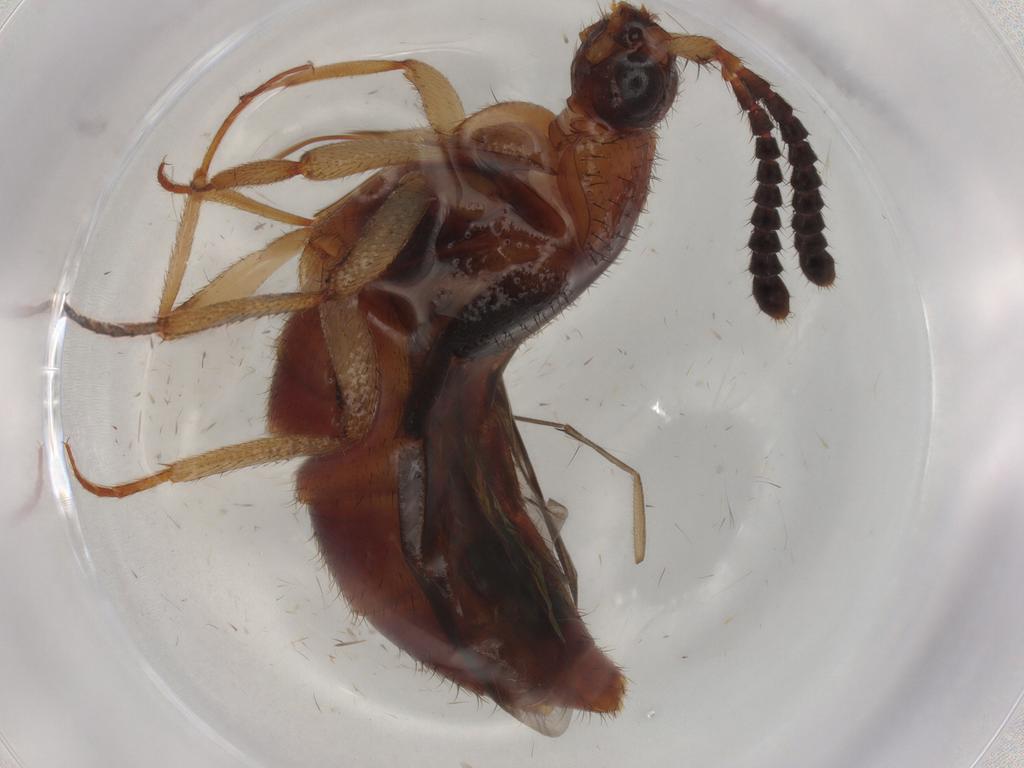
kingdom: Animalia
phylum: Arthropoda
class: Insecta
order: Coleoptera
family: Staphylinidae
